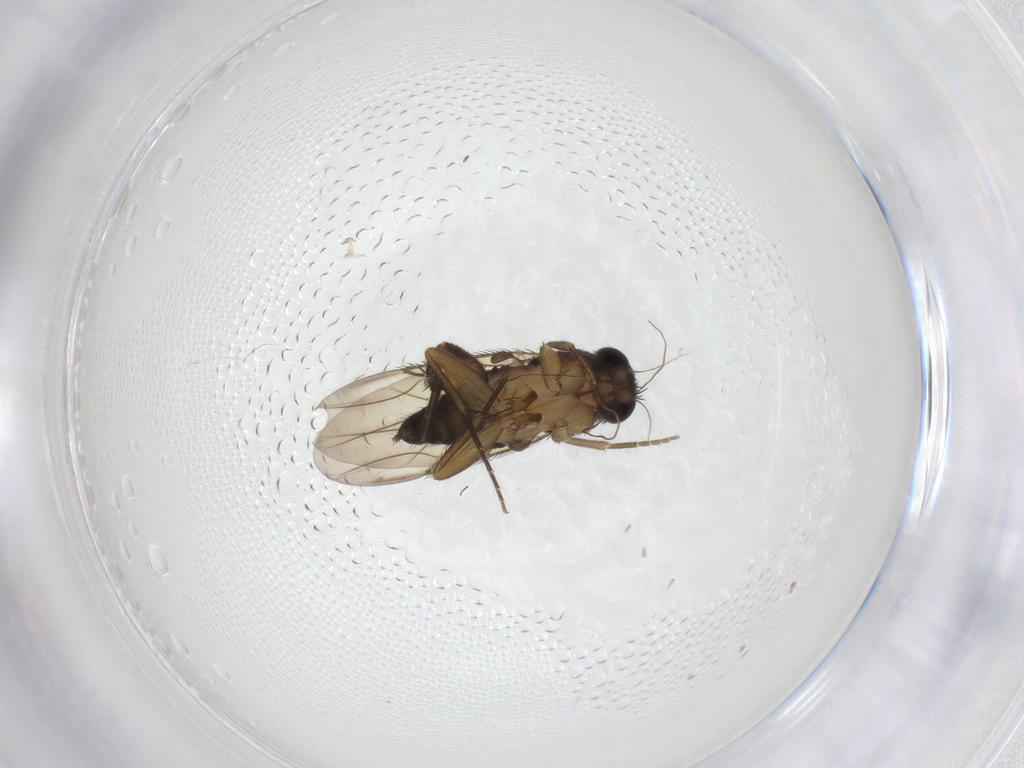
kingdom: Animalia
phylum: Arthropoda
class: Insecta
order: Diptera
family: Phoridae
